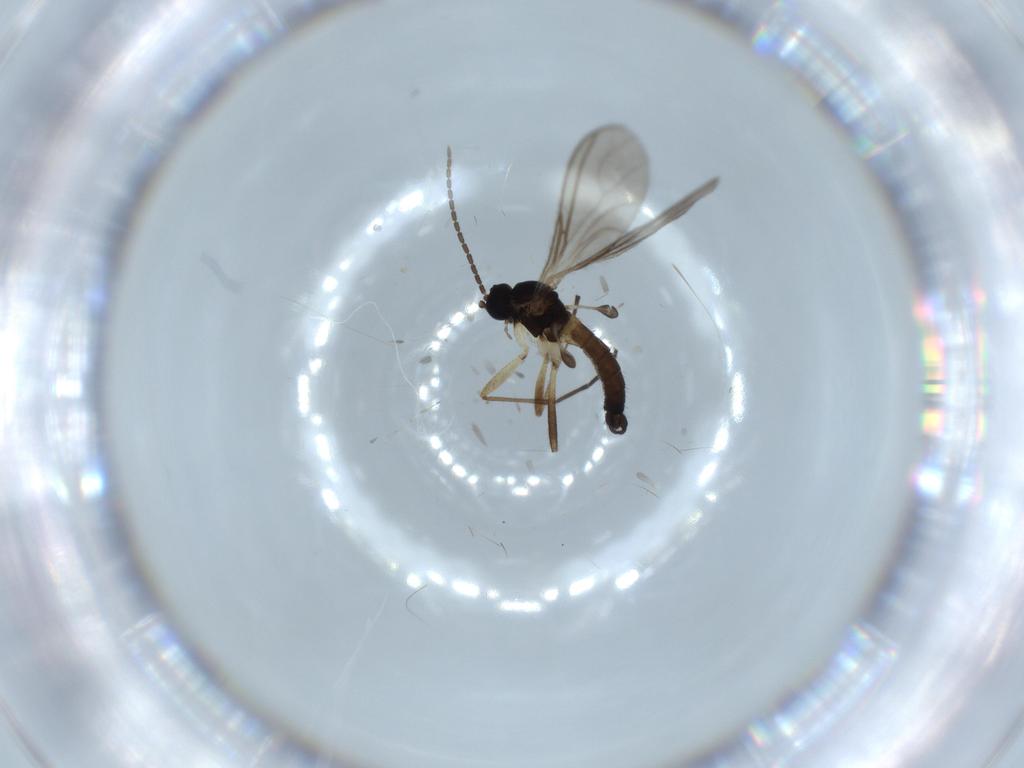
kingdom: Animalia
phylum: Arthropoda
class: Insecta
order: Diptera
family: Sciaridae
